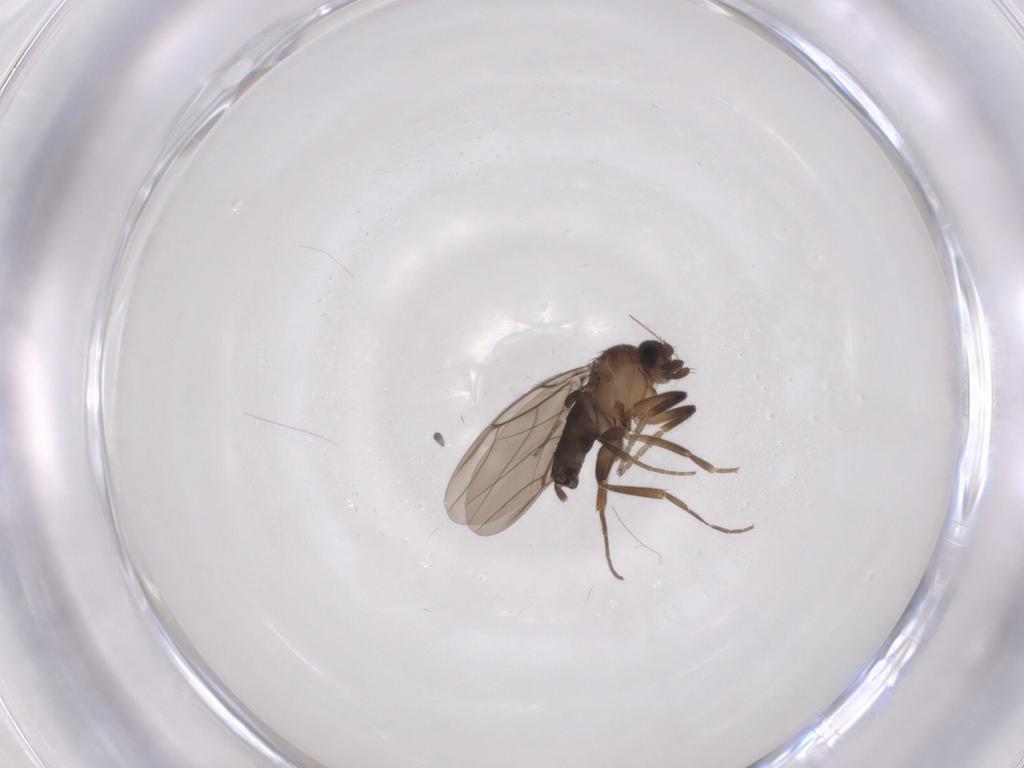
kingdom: Animalia
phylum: Arthropoda
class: Insecta
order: Diptera
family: Phoridae
